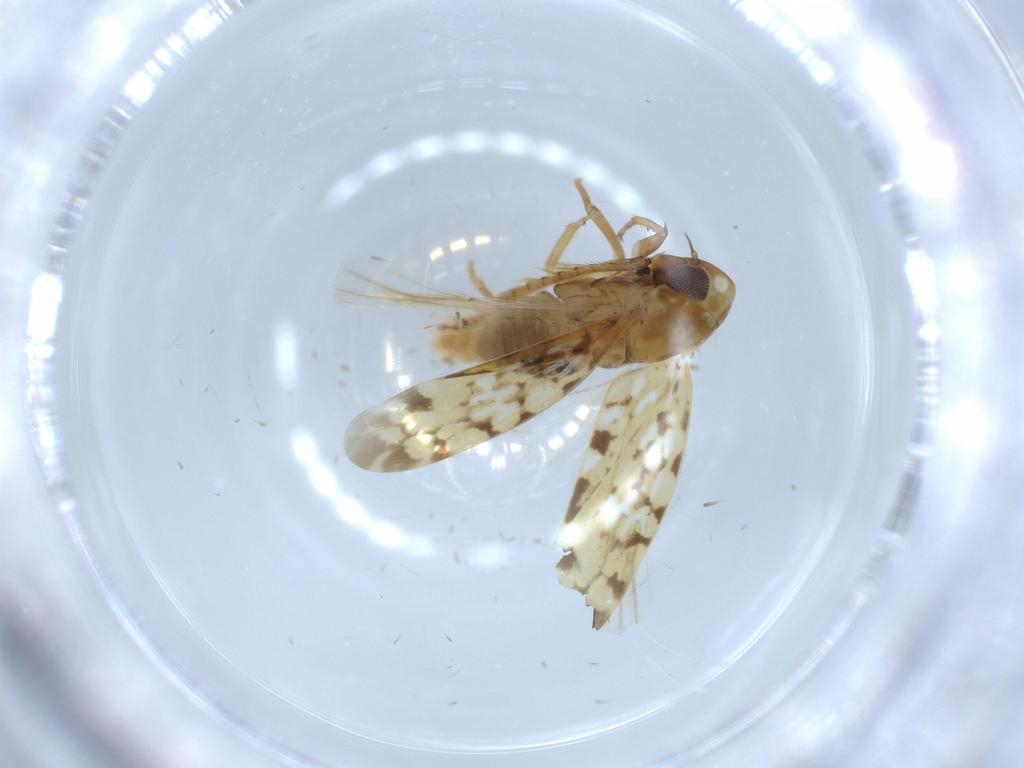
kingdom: Animalia
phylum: Arthropoda
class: Insecta
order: Hemiptera
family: Cicadellidae
